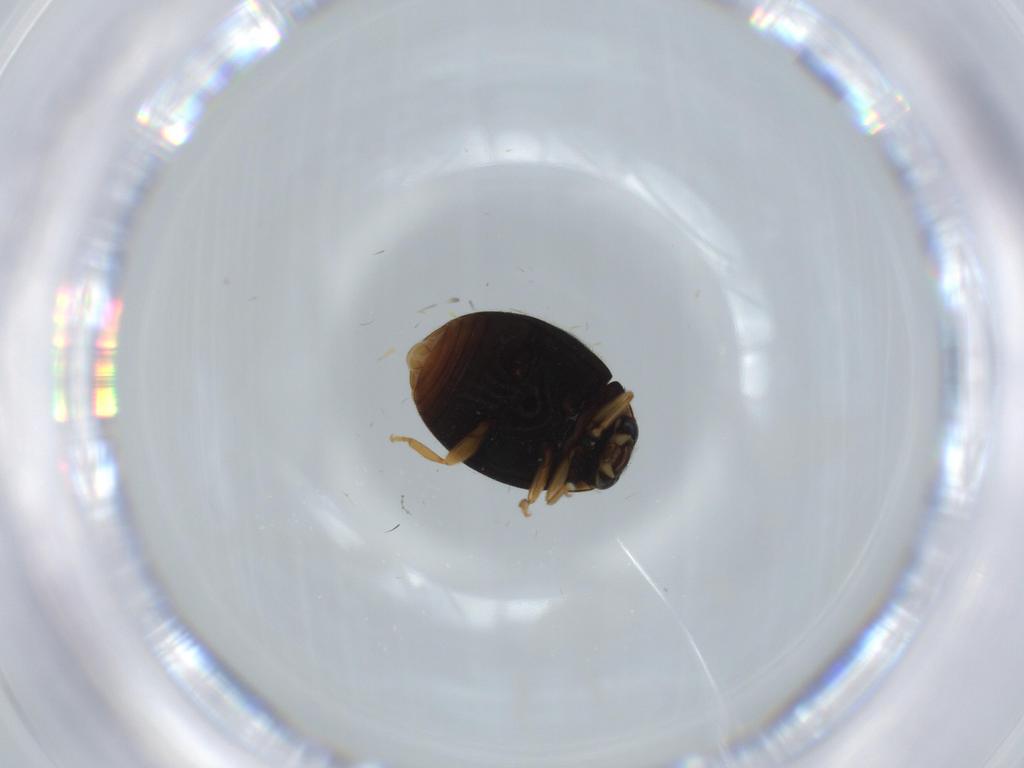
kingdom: Animalia
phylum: Arthropoda
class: Insecta
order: Coleoptera
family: Coccinellidae
